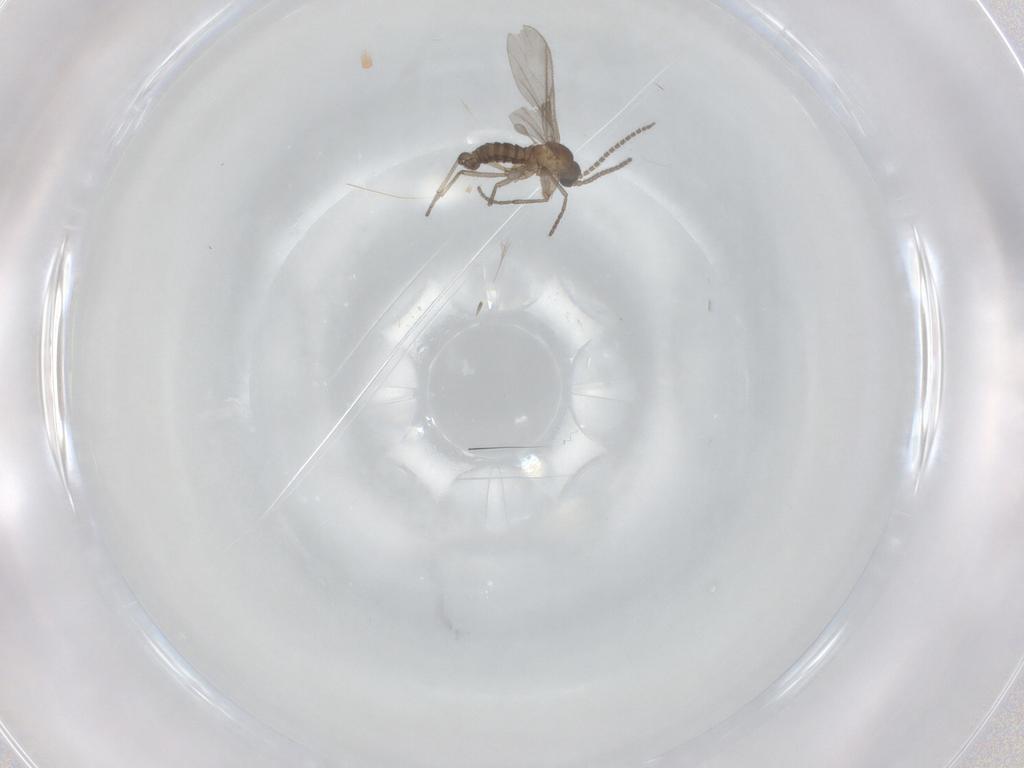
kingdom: Animalia
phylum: Arthropoda
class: Insecta
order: Diptera
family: Sciaridae
